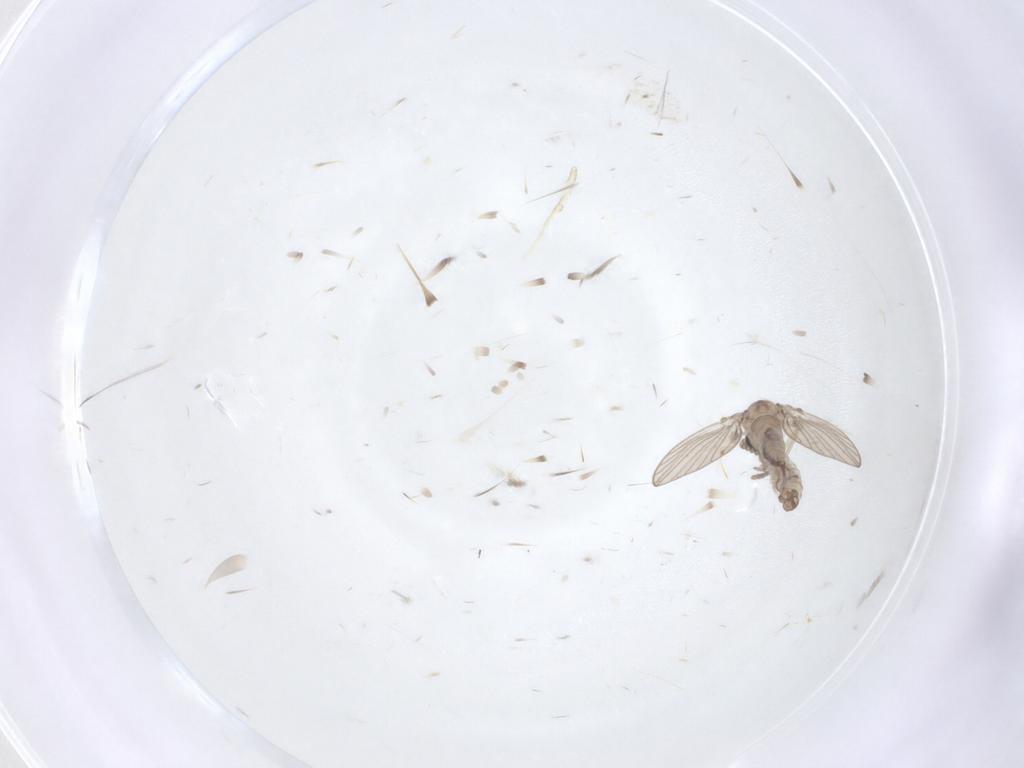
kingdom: Animalia
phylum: Arthropoda
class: Insecta
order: Diptera
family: Psychodidae
